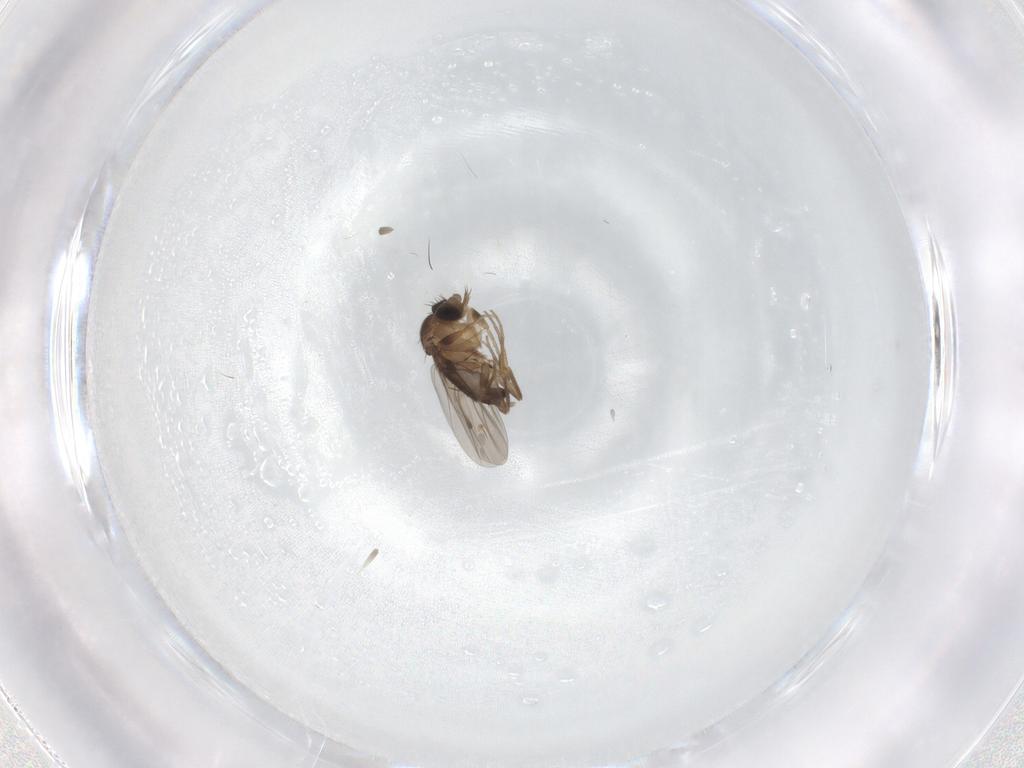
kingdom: Animalia
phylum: Arthropoda
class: Insecta
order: Diptera
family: Phoridae
